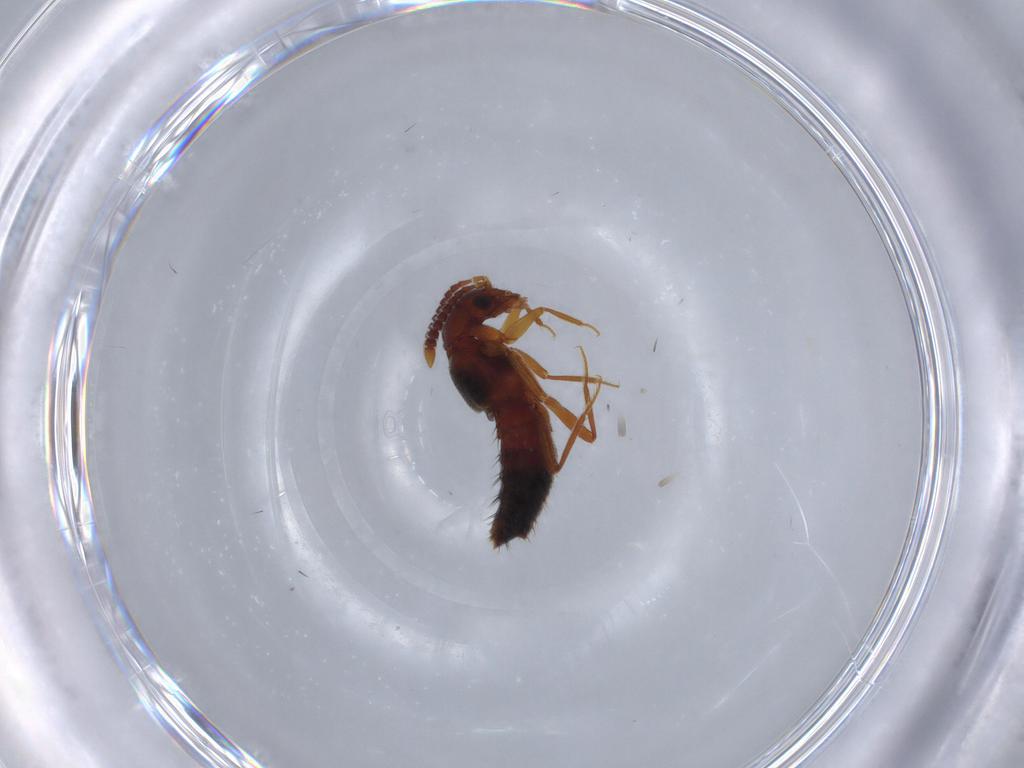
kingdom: Animalia
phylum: Arthropoda
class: Insecta
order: Coleoptera
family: Staphylinidae
